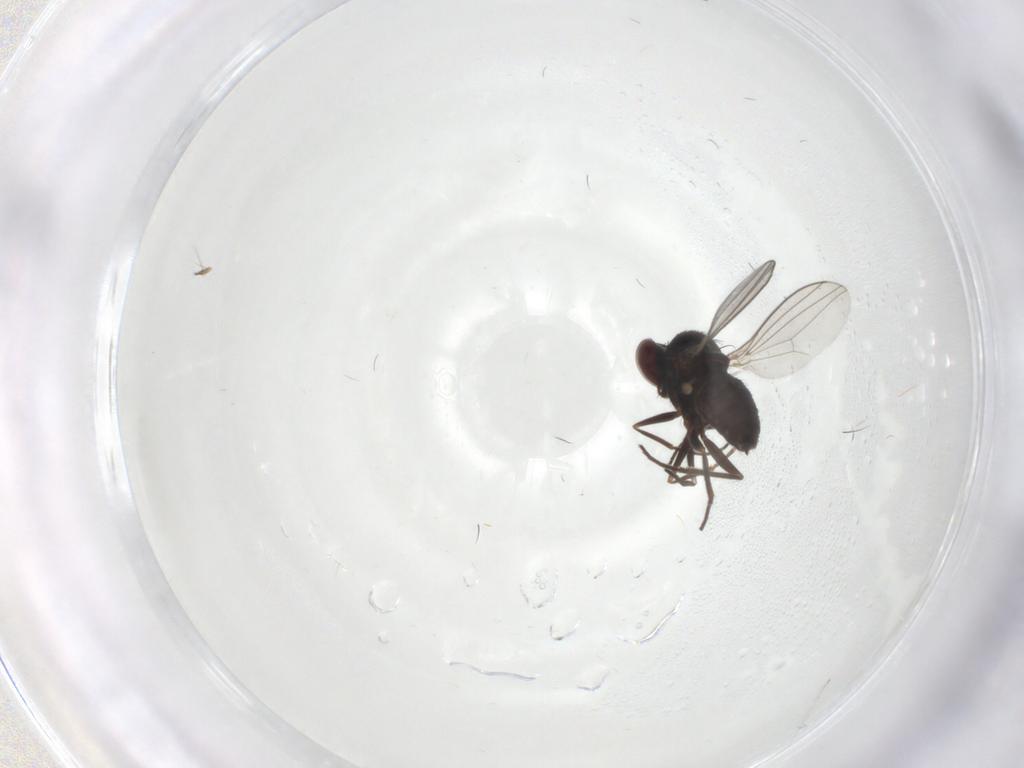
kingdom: Animalia
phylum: Arthropoda
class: Insecta
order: Diptera
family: Dolichopodidae
